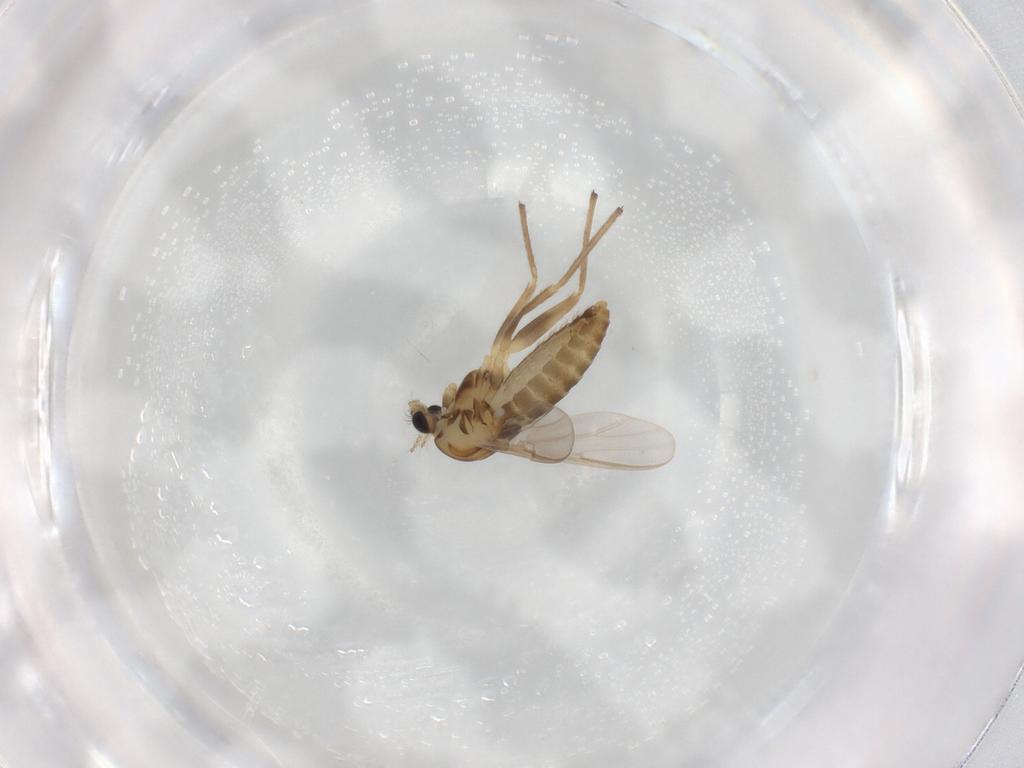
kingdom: Animalia
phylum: Arthropoda
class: Insecta
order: Diptera
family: Chironomidae
